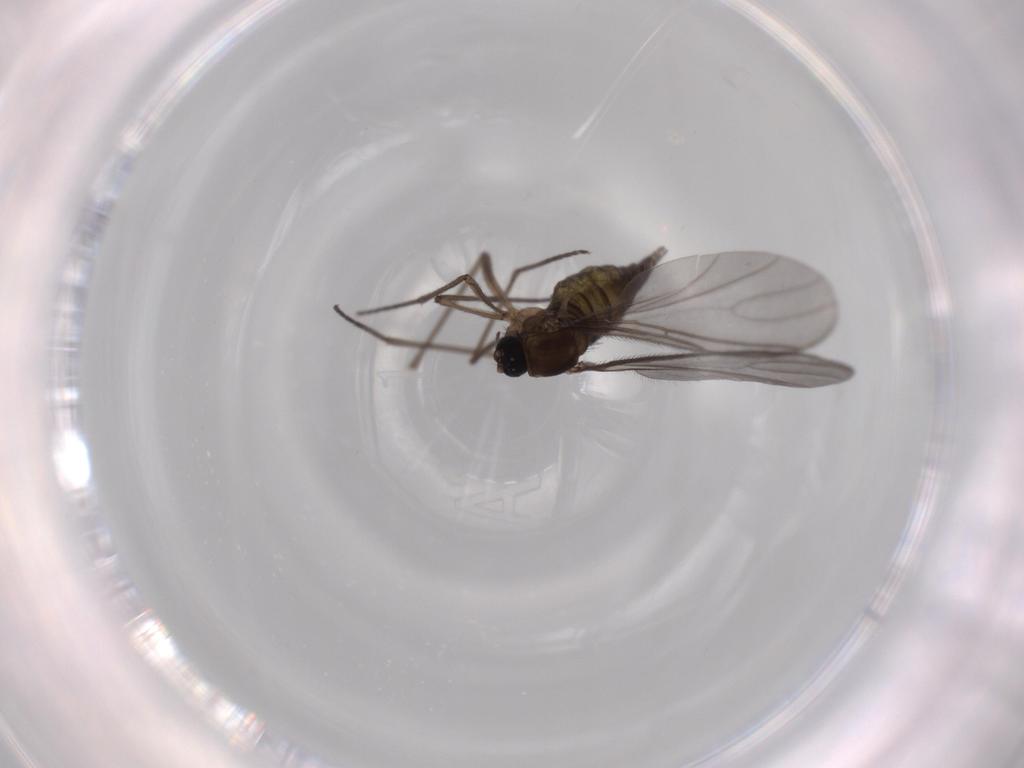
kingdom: Animalia
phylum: Arthropoda
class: Insecta
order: Diptera
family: Sciaridae
